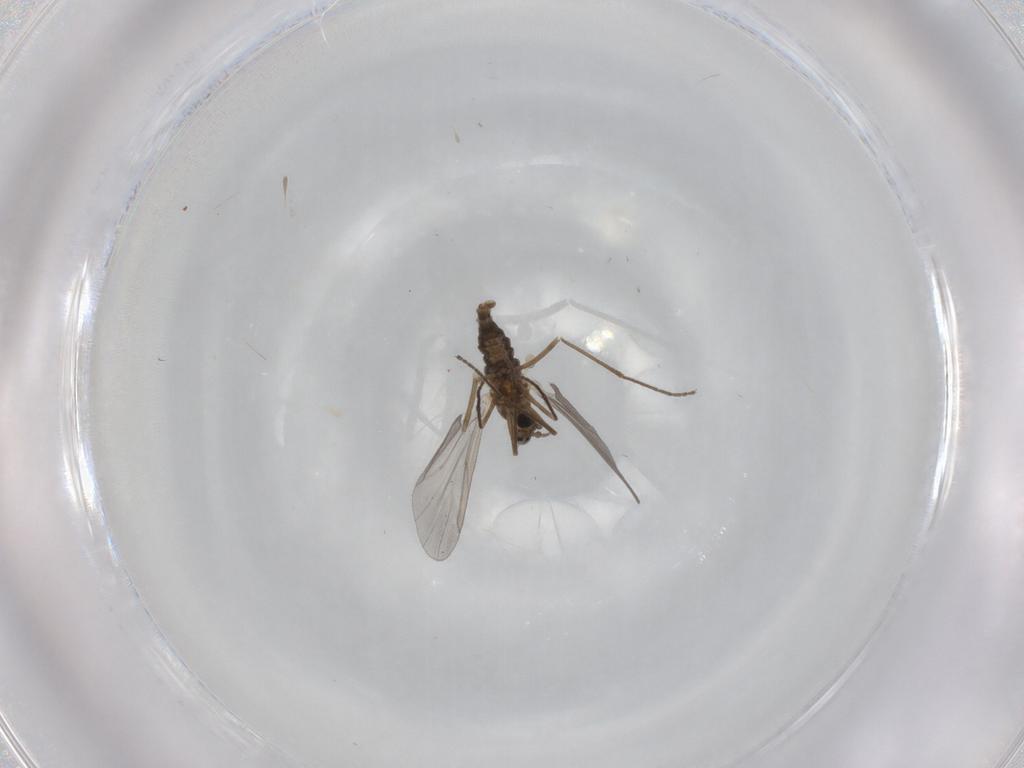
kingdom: Animalia
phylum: Arthropoda
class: Insecta
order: Diptera
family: Cecidomyiidae
